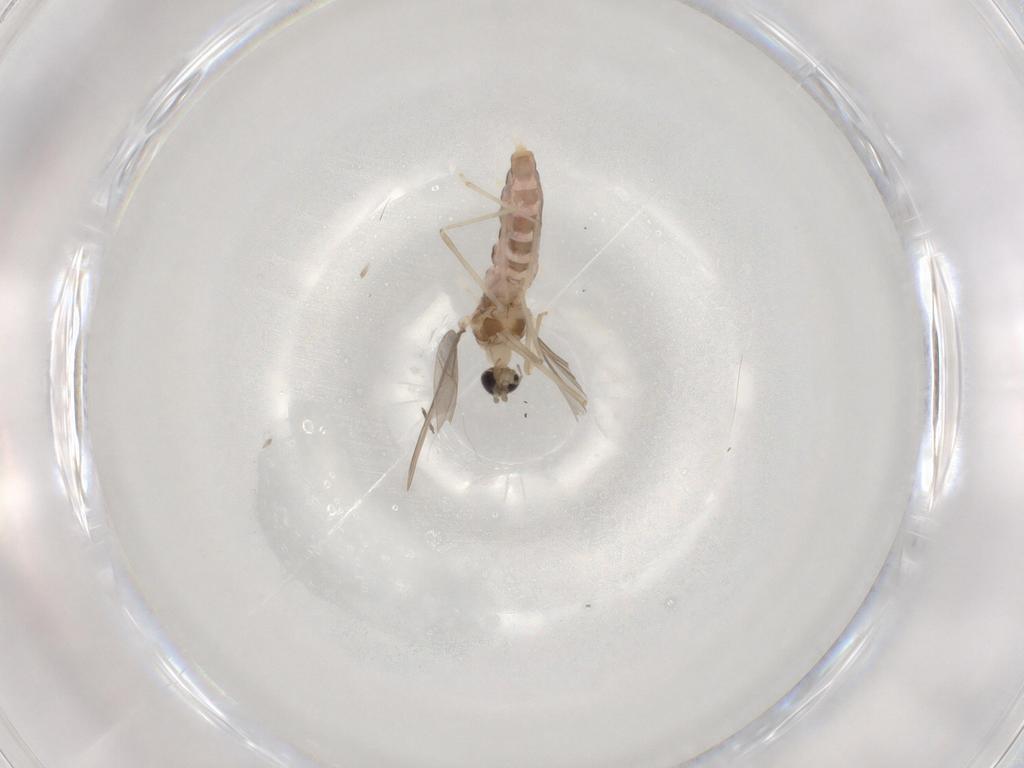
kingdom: Animalia
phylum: Arthropoda
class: Insecta
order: Diptera
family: Cecidomyiidae
